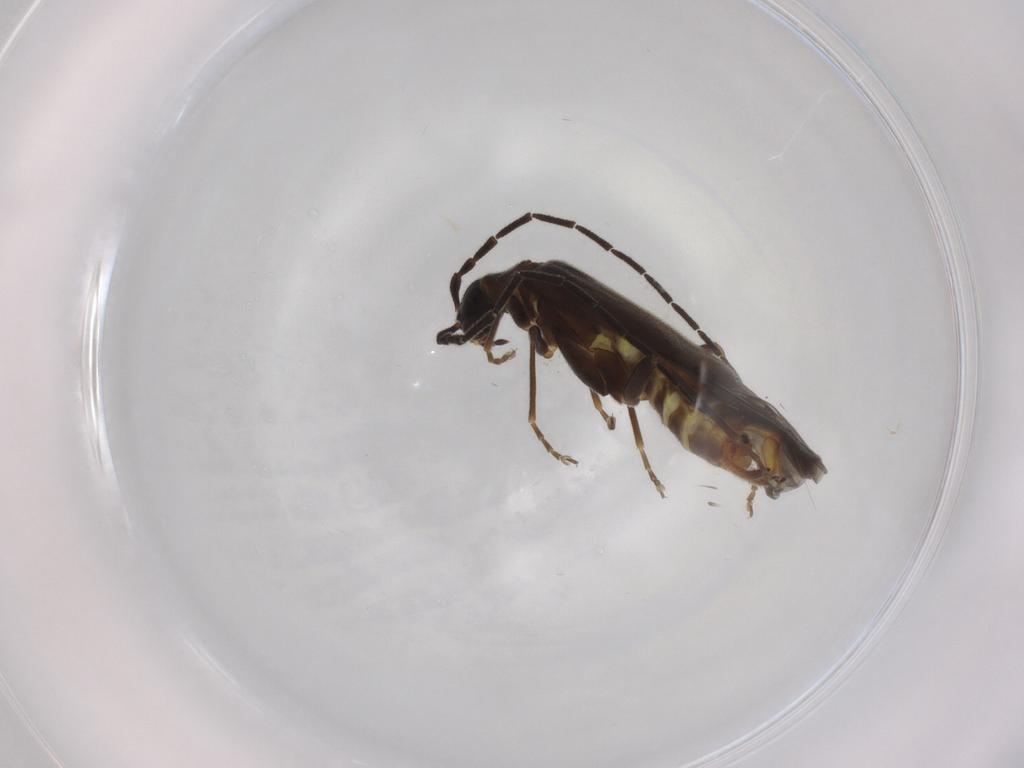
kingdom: Animalia
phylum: Arthropoda
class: Insecta
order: Coleoptera
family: Cantharidae
